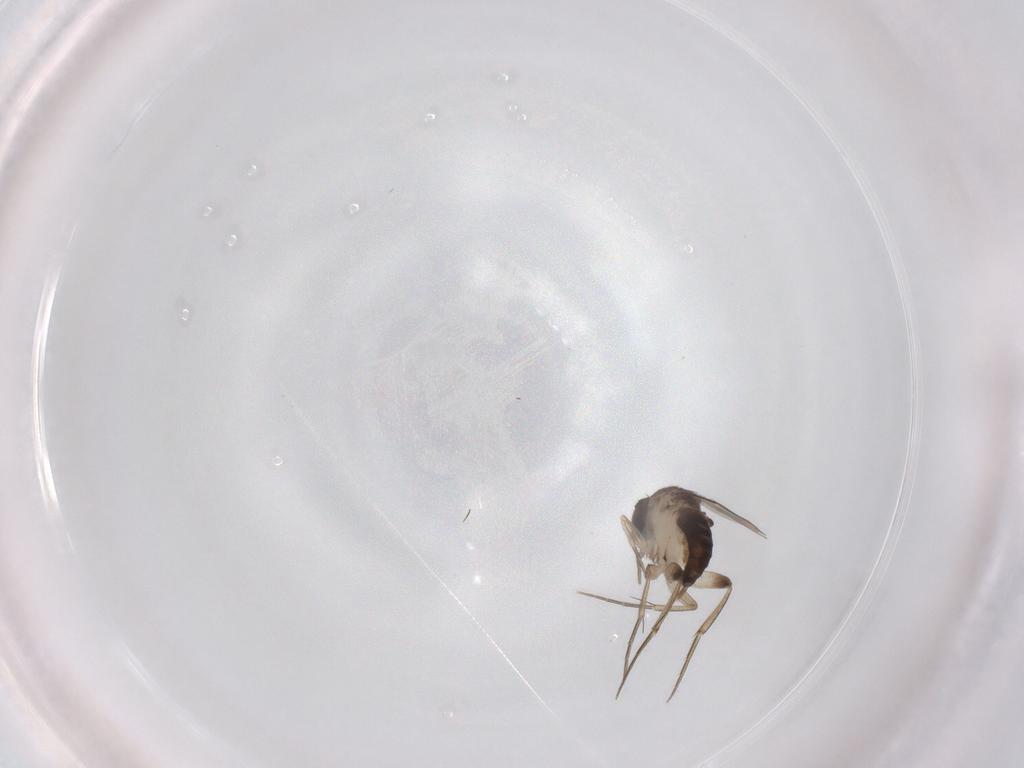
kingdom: Animalia
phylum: Arthropoda
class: Insecta
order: Diptera
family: Phoridae
